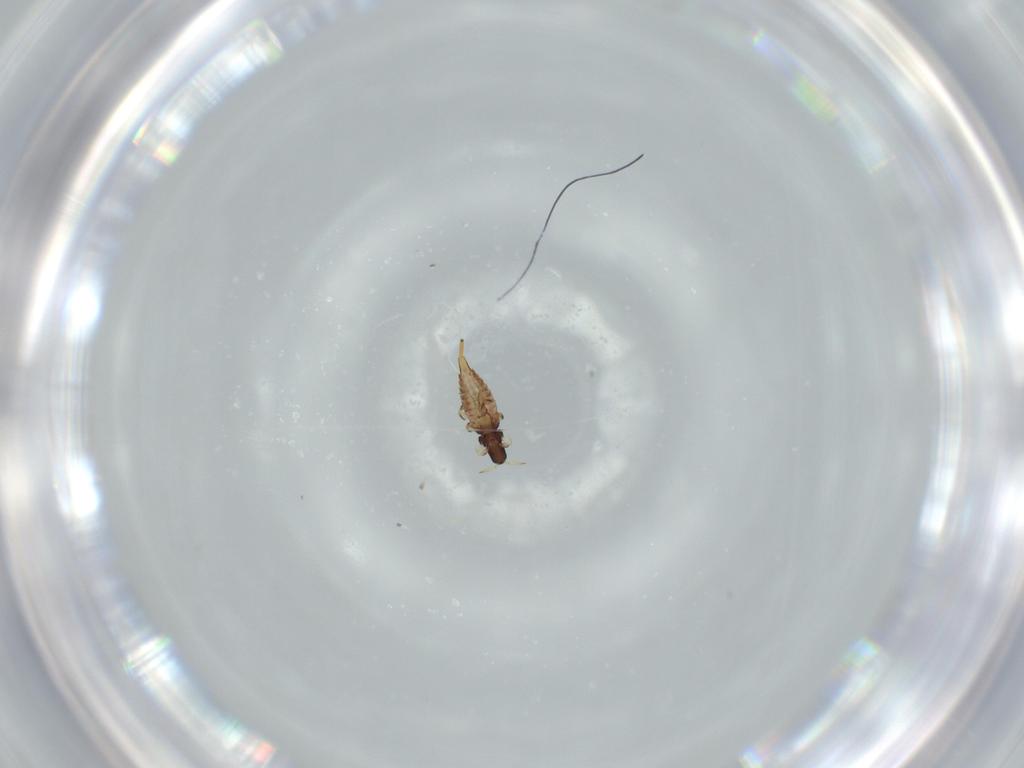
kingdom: Animalia
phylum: Arthropoda
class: Insecta
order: Thysanoptera
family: Phlaeothripidae
